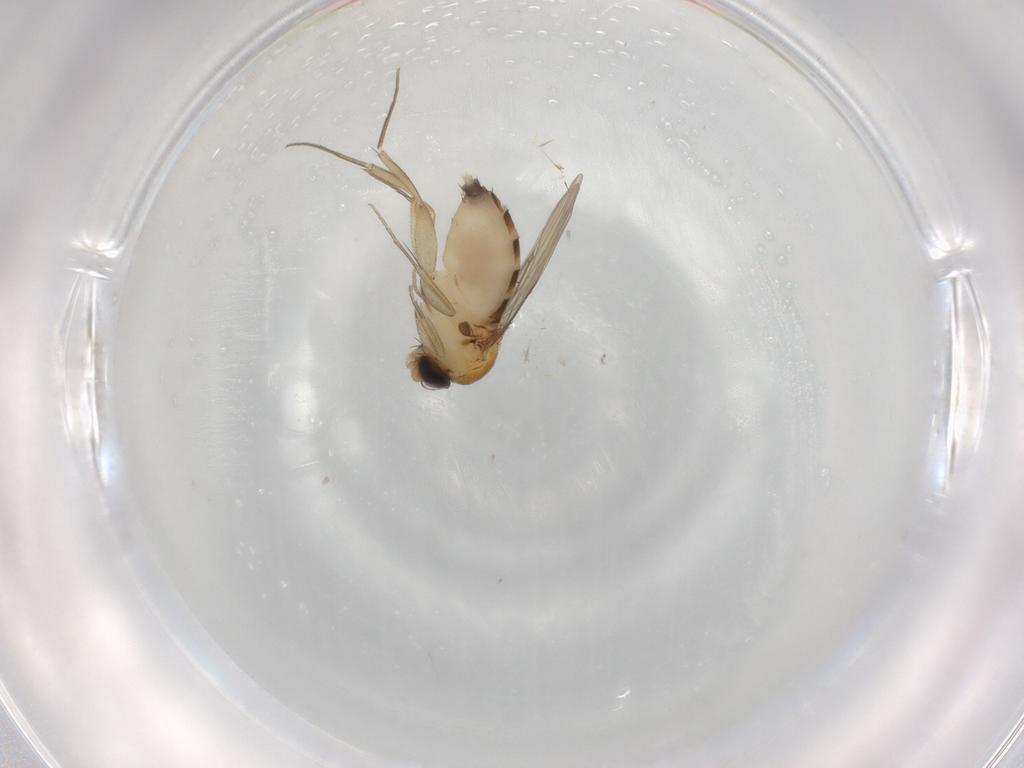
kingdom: Animalia
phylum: Arthropoda
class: Insecta
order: Diptera
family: Phoridae
